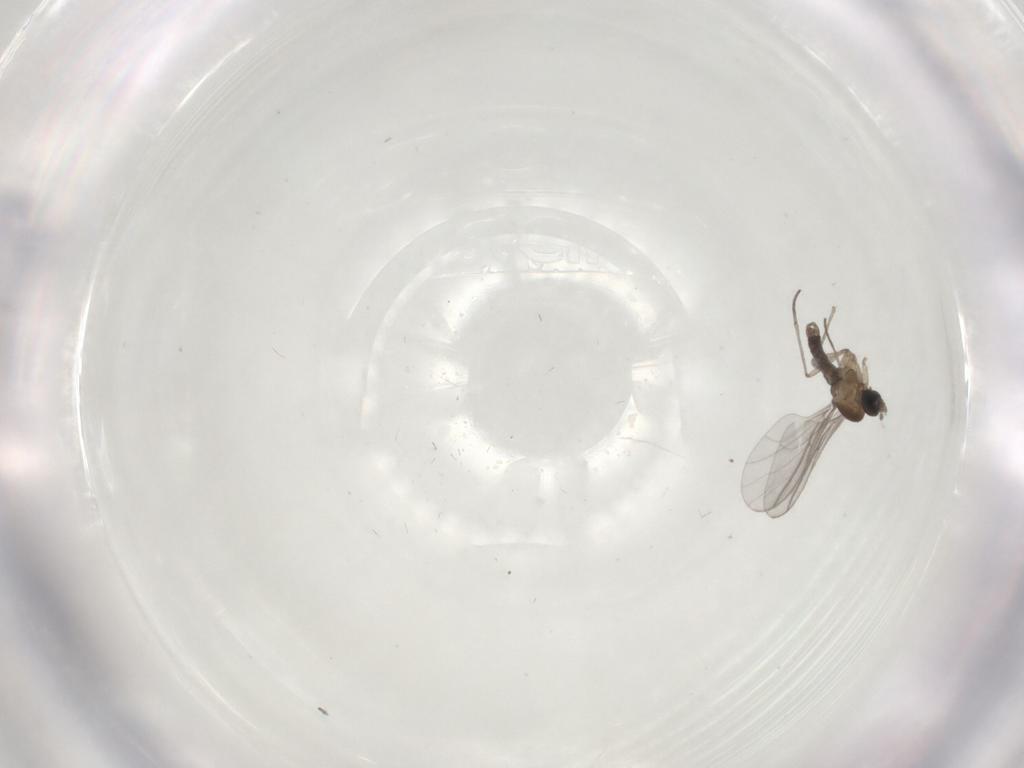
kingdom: Animalia
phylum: Arthropoda
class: Insecta
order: Diptera
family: Sciaridae
